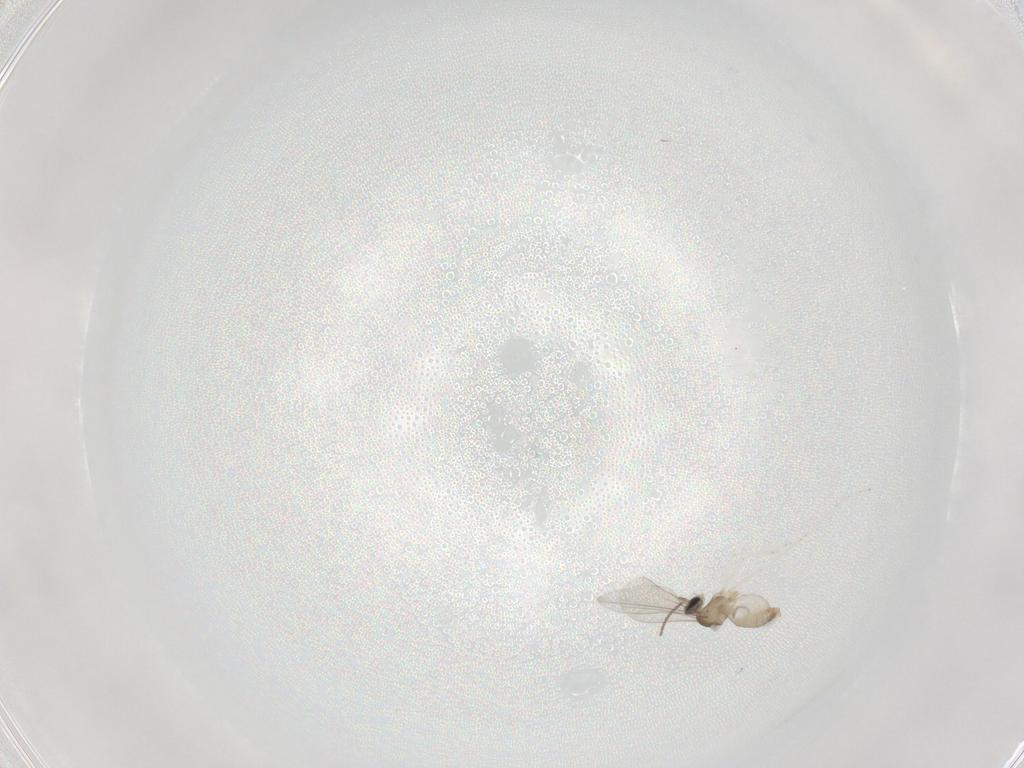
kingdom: Animalia
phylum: Arthropoda
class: Insecta
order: Diptera
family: Cecidomyiidae
